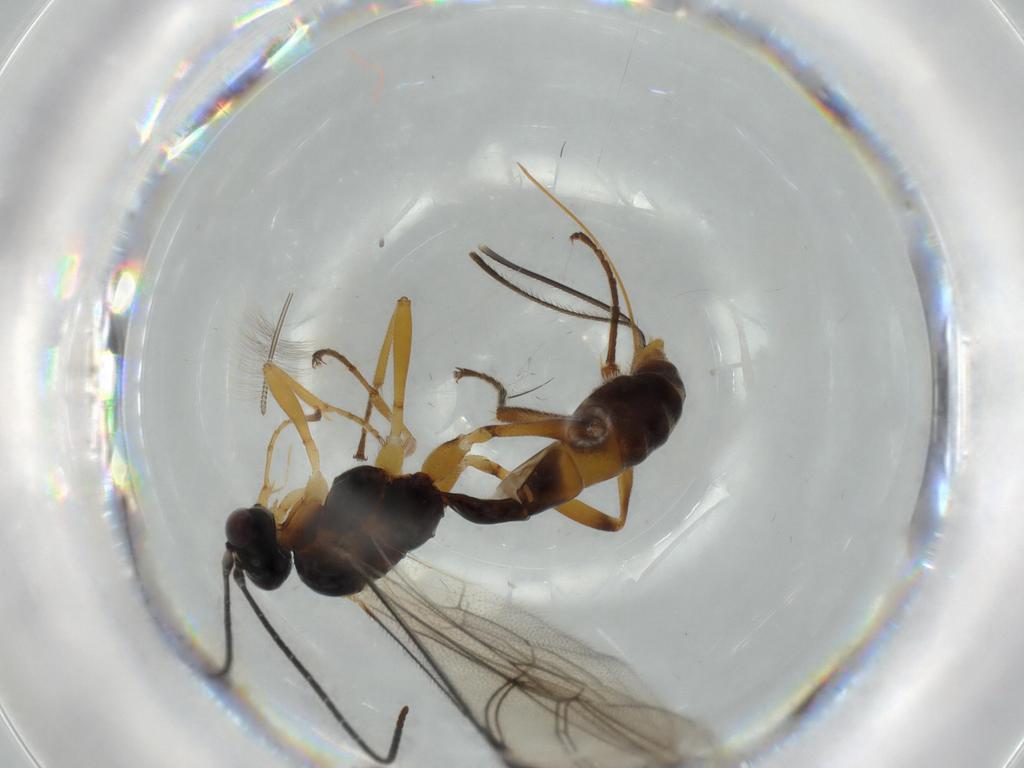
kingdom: Animalia
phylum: Arthropoda
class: Insecta
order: Hymenoptera
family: Ichneumonidae
